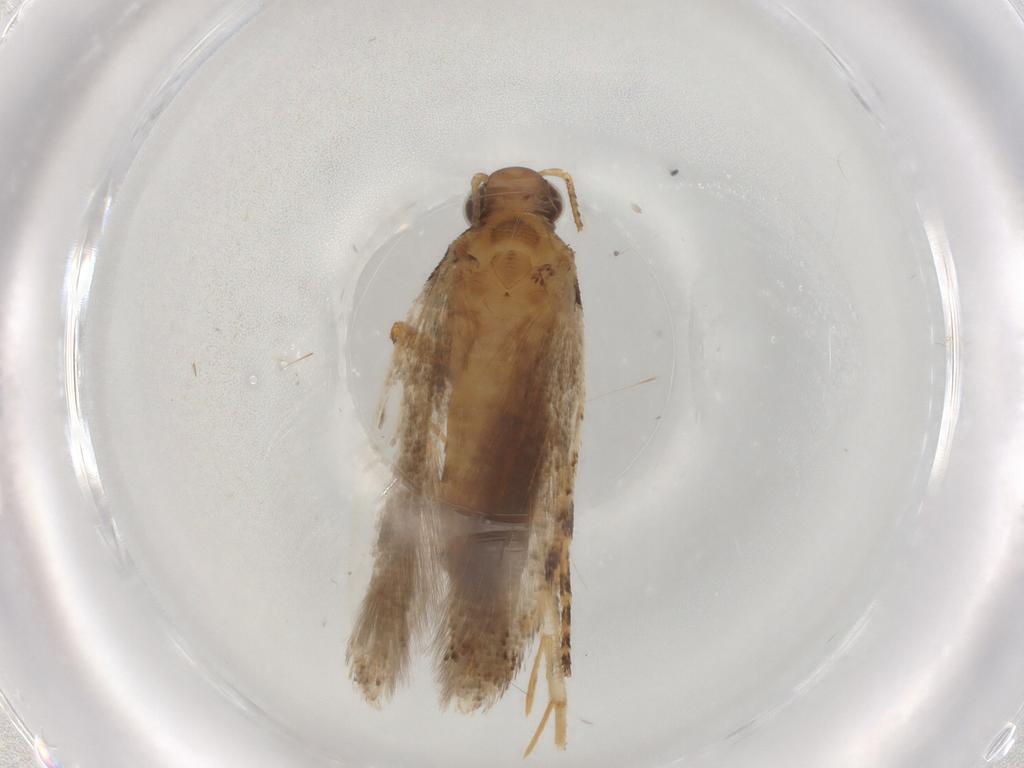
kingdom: Animalia
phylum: Arthropoda
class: Insecta
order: Lepidoptera
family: Gelechiidae
